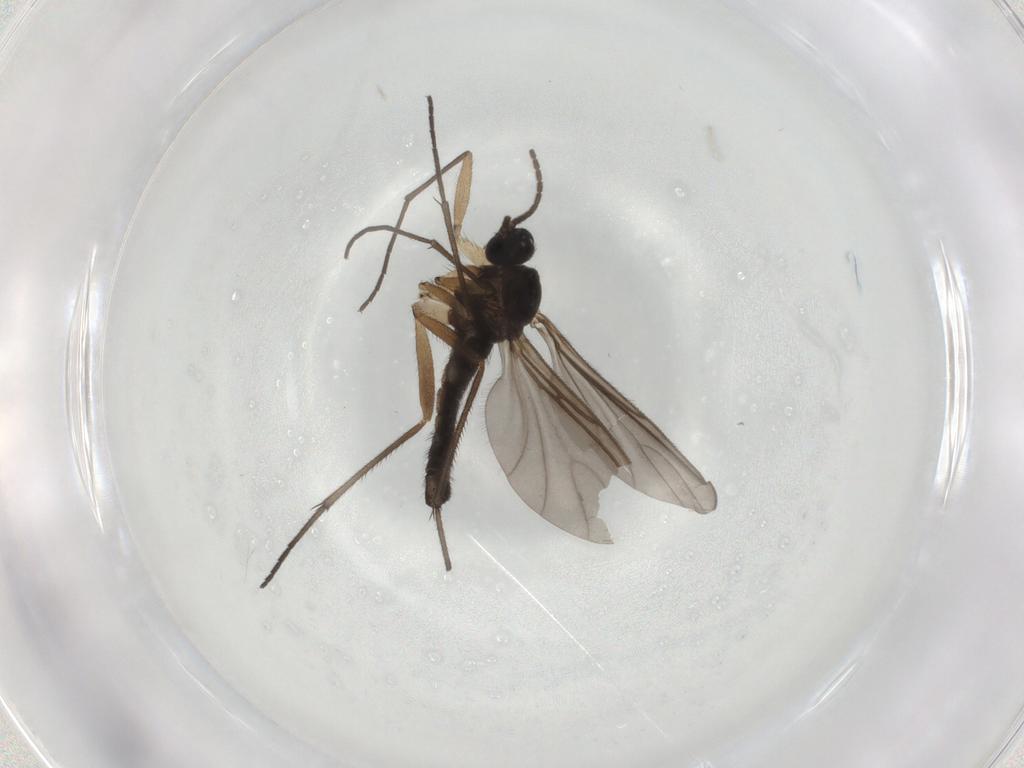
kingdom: Animalia
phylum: Arthropoda
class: Insecta
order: Diptera
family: Sciaridae
